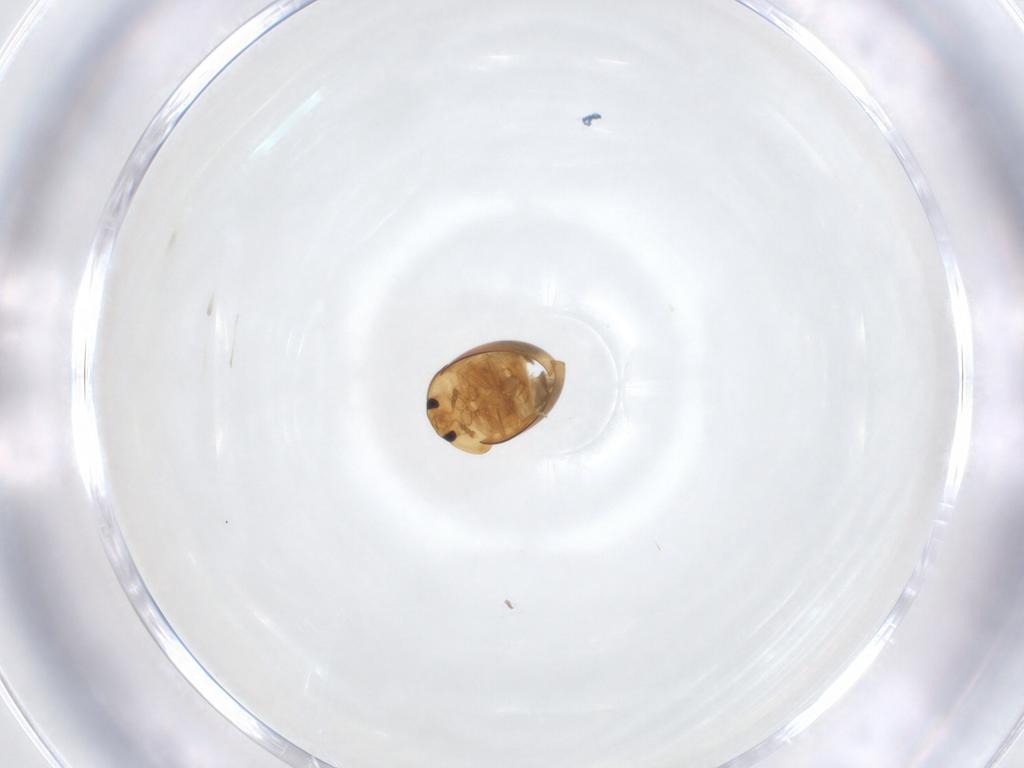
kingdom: Animalia
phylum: Arthropoda
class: Insecta
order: Coleoptera
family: Corylophidae
